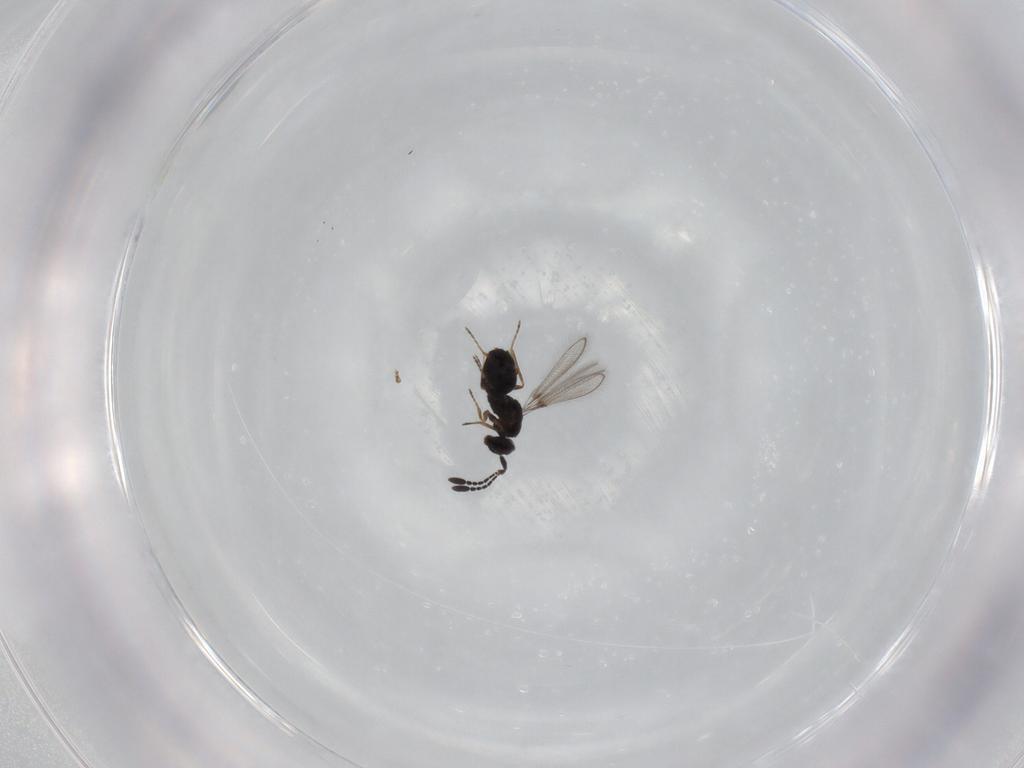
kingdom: Animalia
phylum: Arthropoda
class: Insecta
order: Hymenoptera
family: Mymaridae
